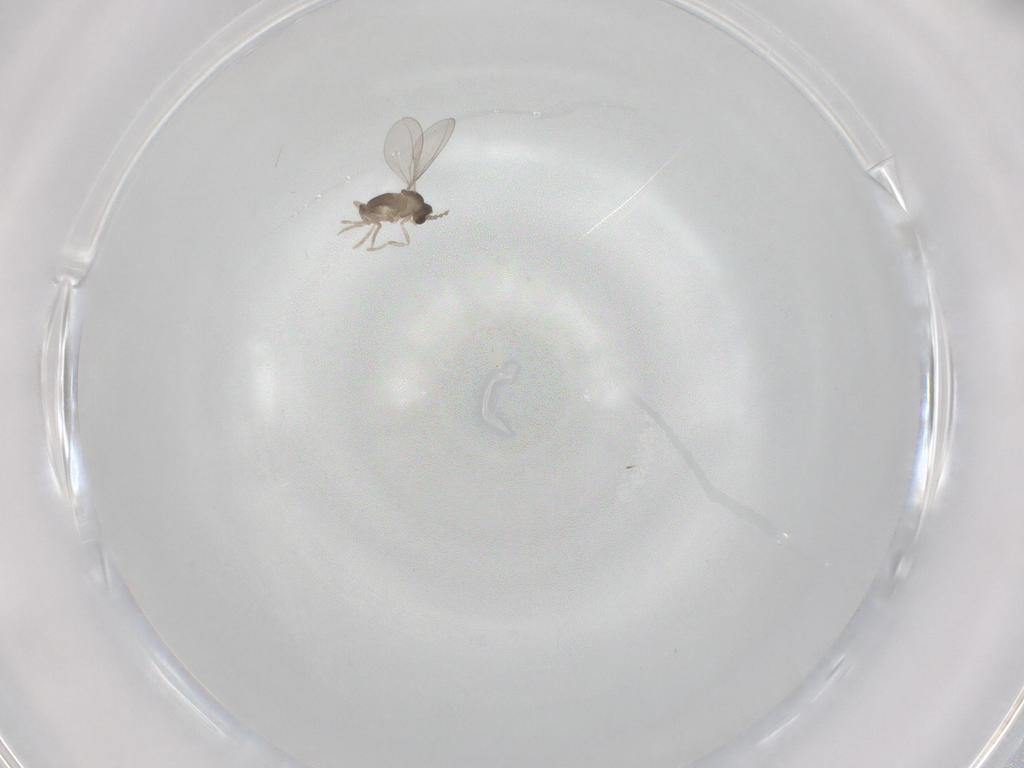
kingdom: Animalia
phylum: Arthropoda
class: Insecta
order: Diptera
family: Cecidomyiidae
